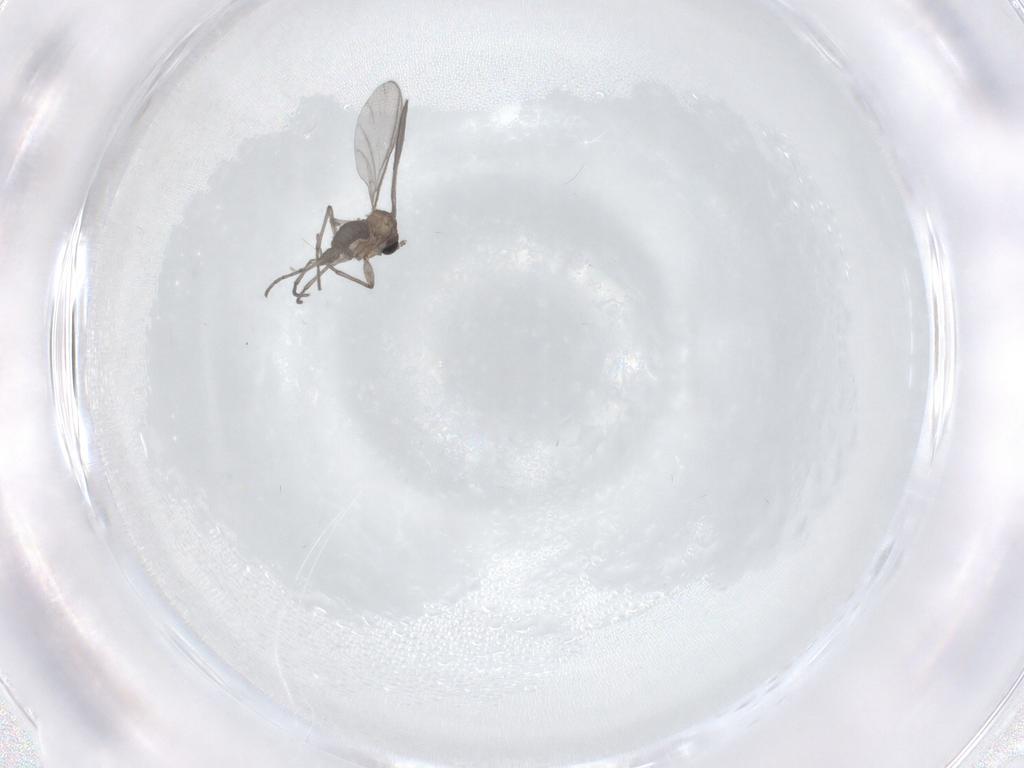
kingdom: Animalia
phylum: Arthropoda
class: Insecta
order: Diptera
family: Sciaridae
